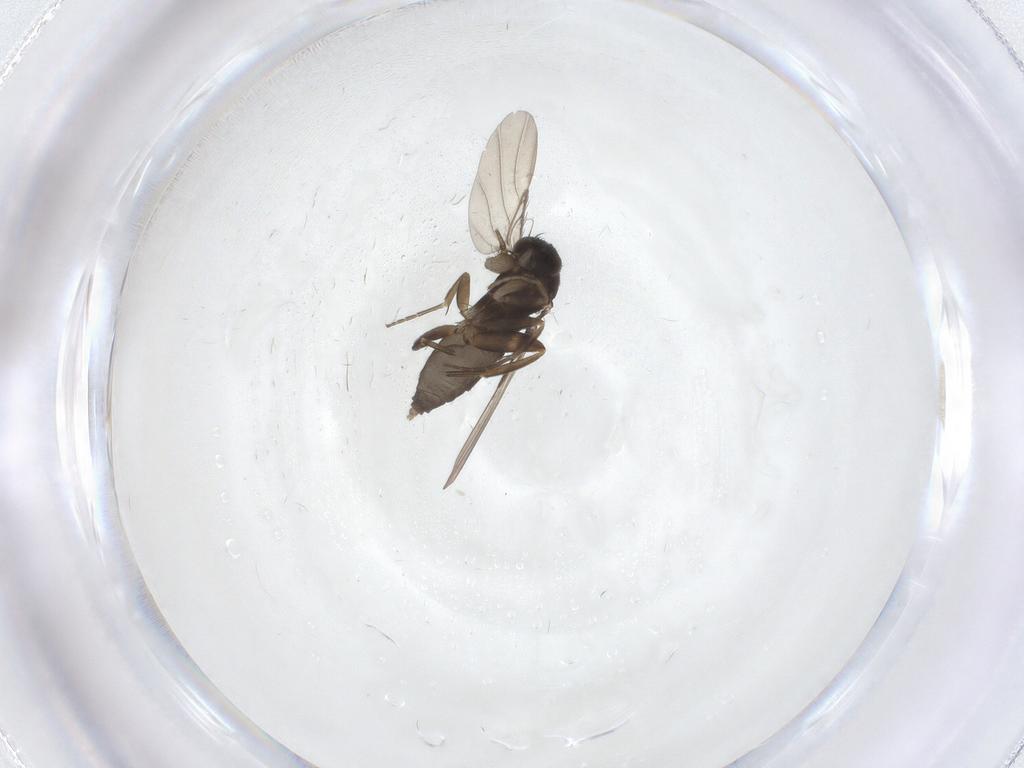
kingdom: Animalia
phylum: Arthropoda
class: Insecta
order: Diptera
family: Phoridae
